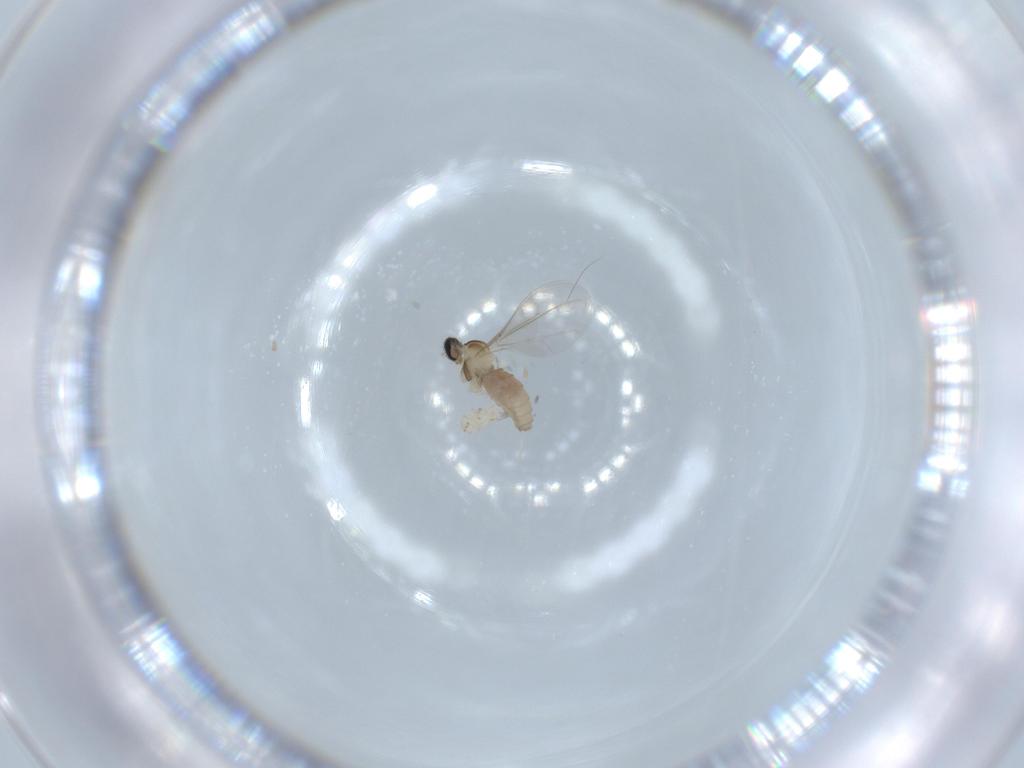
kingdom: Animalia
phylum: Arthropoda
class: Insecta
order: Diptera
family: Cecidomyiidae
